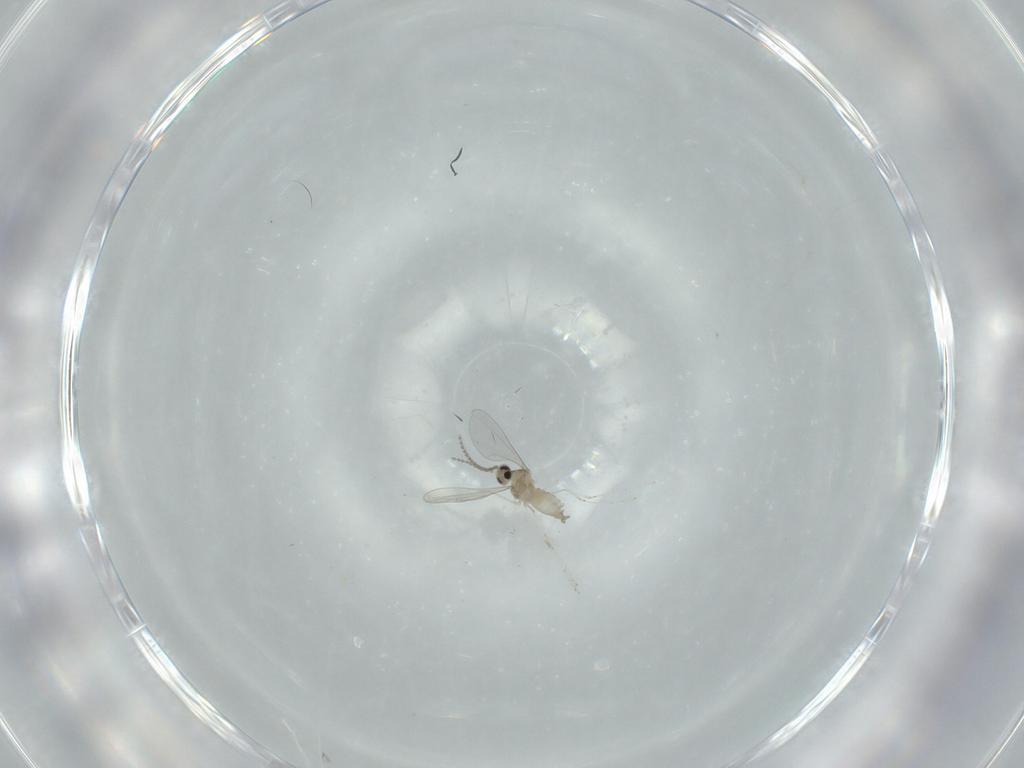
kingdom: Animalia
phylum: Arthropoda
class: Insecta
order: Diptera
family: Cecidomyiidae
